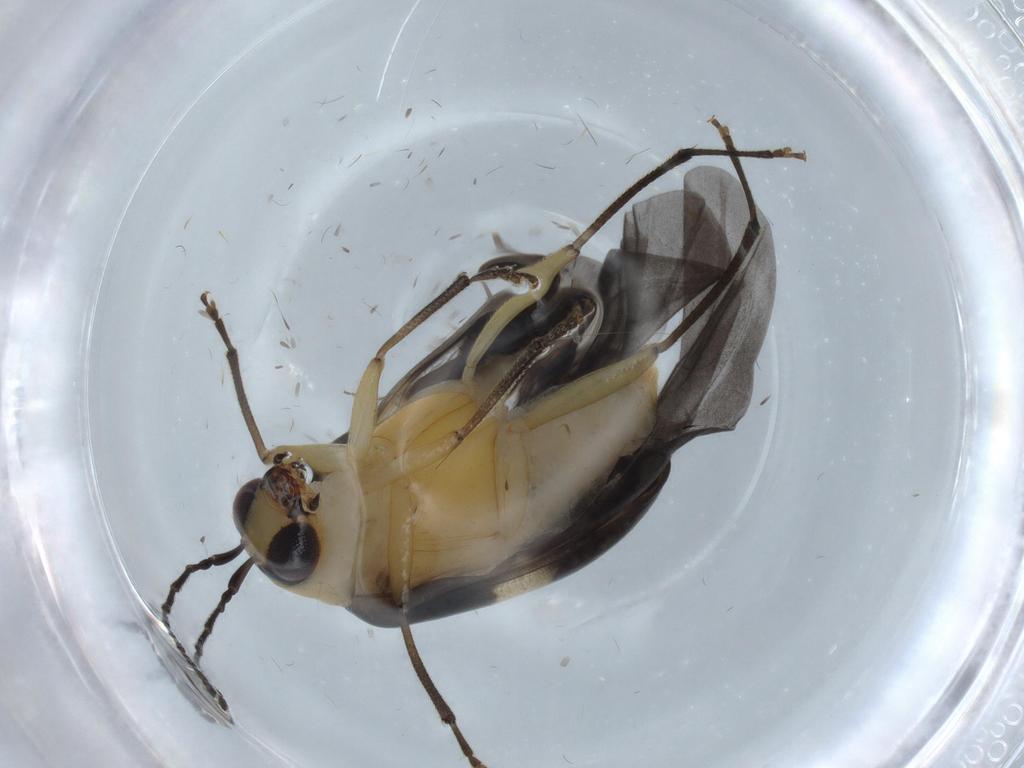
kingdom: Animalia
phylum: Arthropoda
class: Insecta
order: Coleoptera
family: Chrysomelidae
